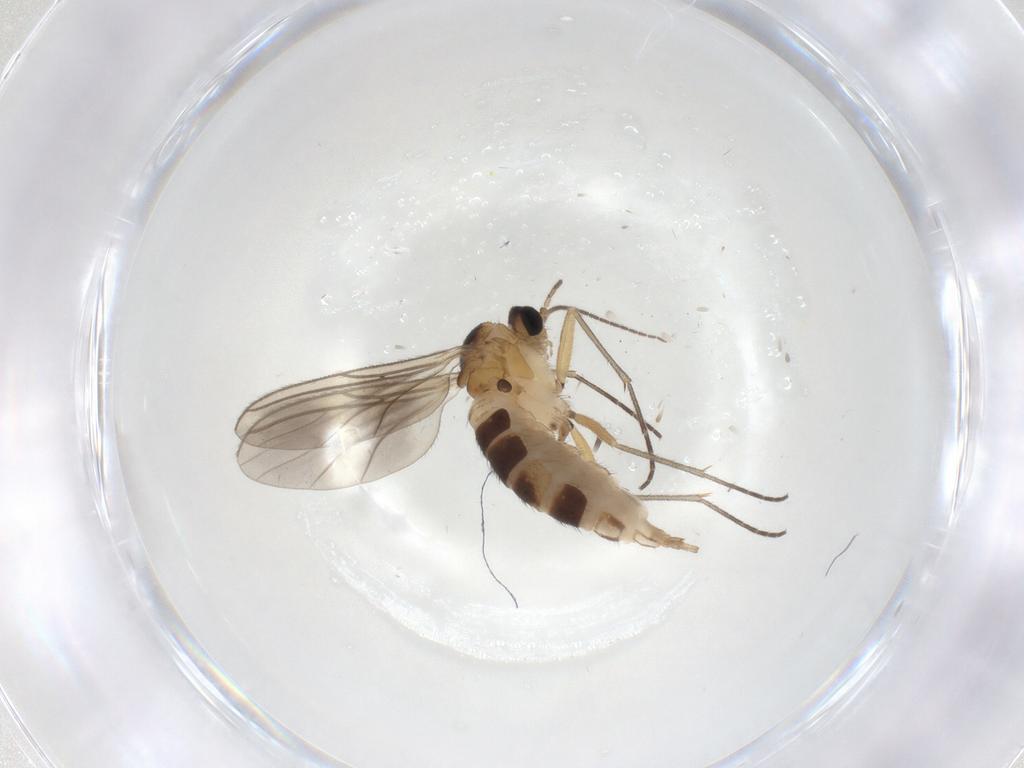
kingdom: Animalia
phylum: Arthropoda
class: Insecta
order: Diptera
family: Sciaridae
